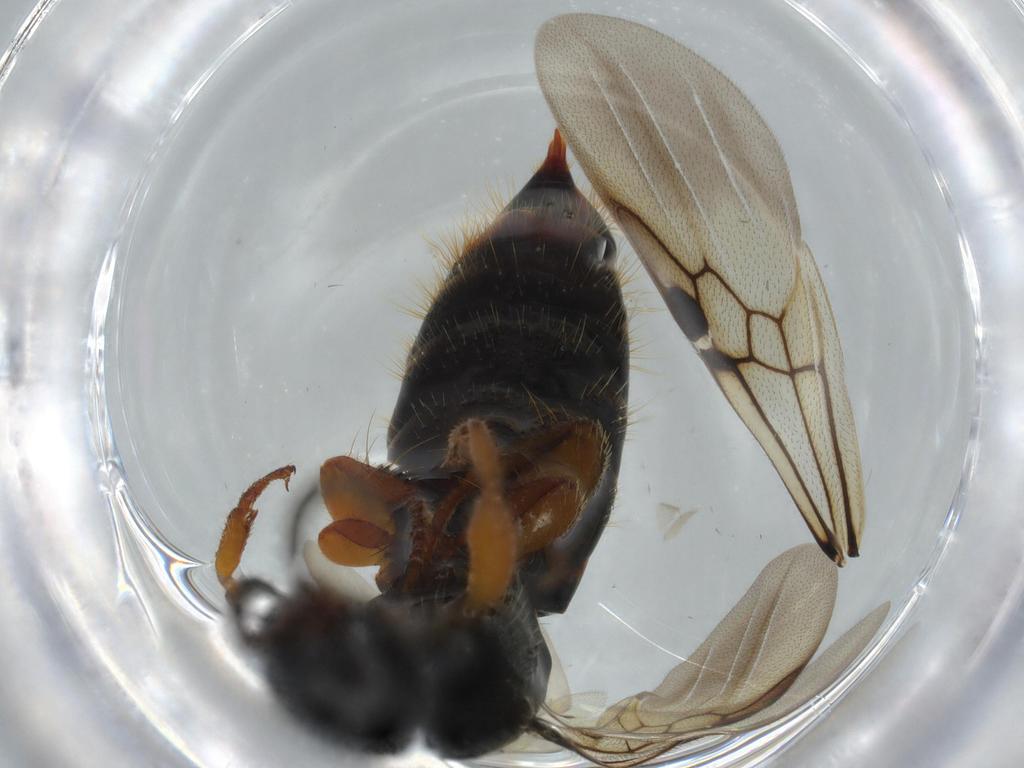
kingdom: Animalia
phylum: Arthropoda
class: Insecta
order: Hymenoptera
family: Scolebythidae
